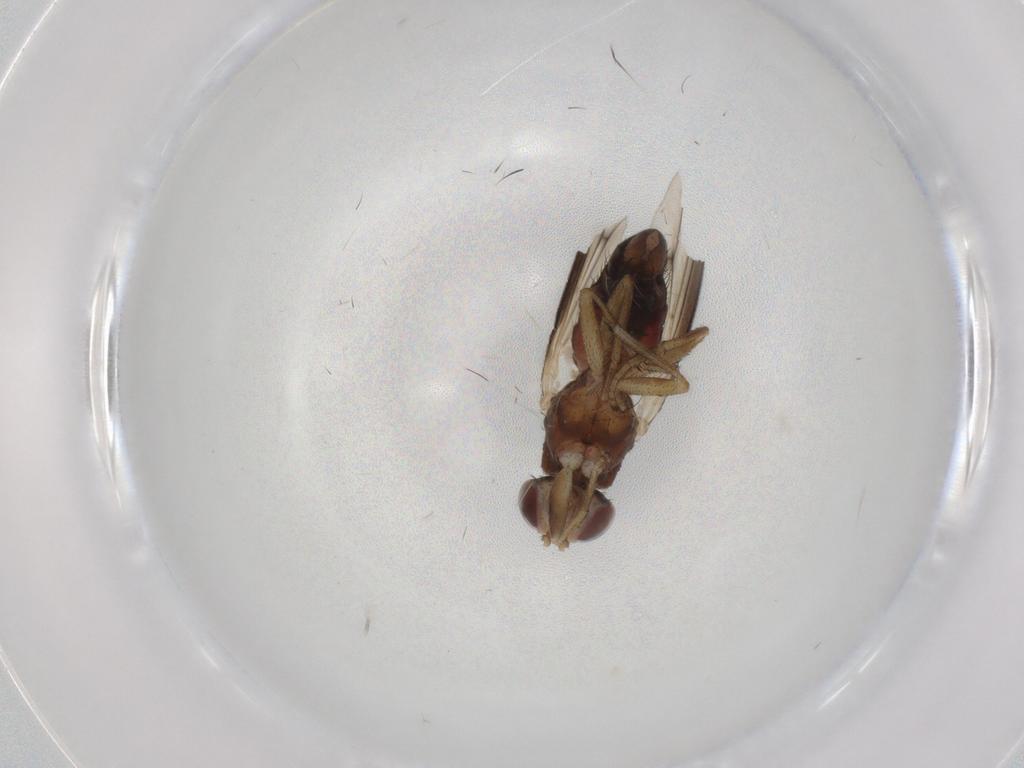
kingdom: Animalia
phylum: Arthropoda
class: Insecta
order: Diptera
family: Heleomyzidae
